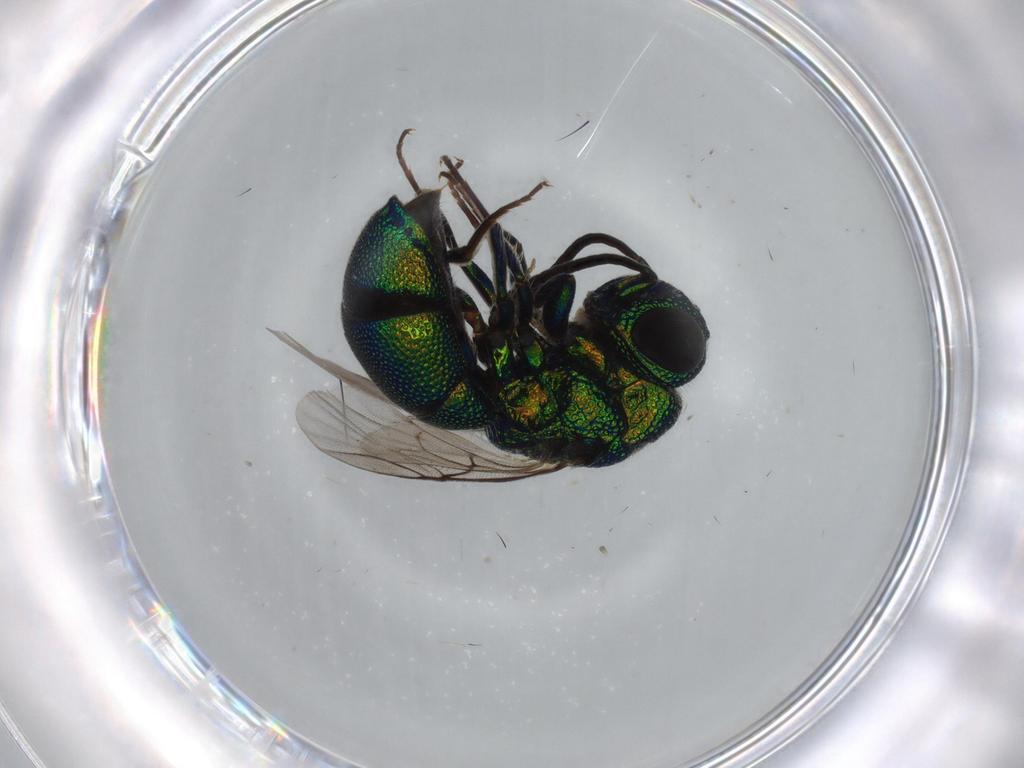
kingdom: Animalia
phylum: Arthropoda
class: Insecta
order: Hymenoptera
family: Chrysididae
